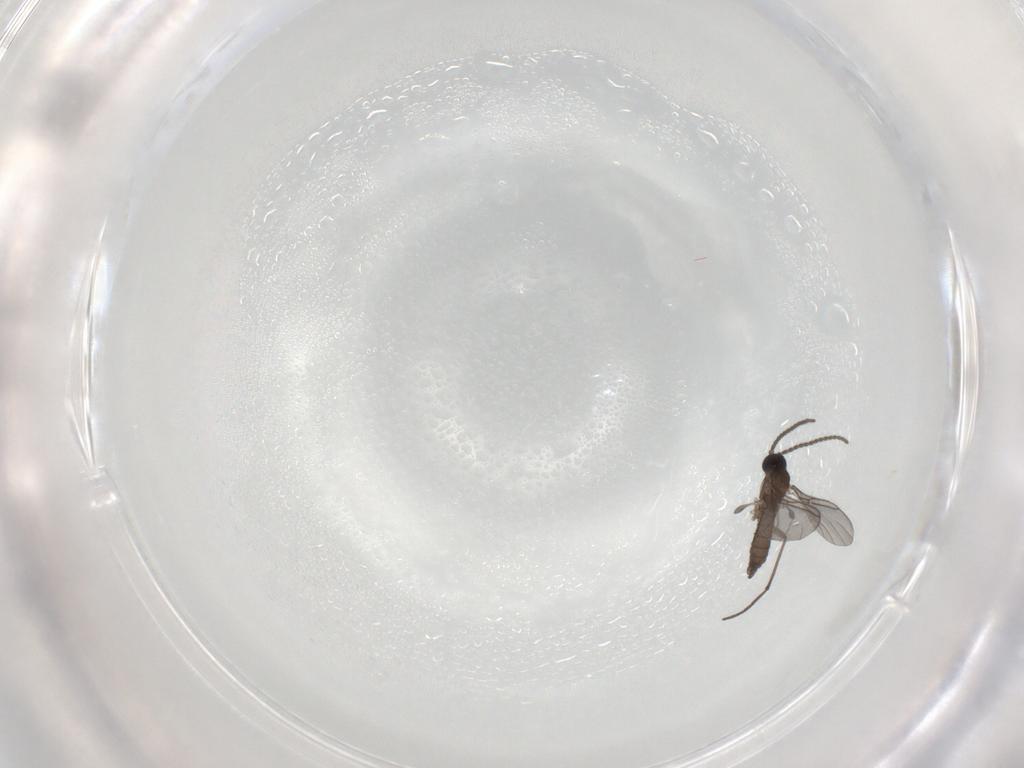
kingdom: Animalia
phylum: Arthropoda
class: Insecta
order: Diptera
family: Sciaridae
